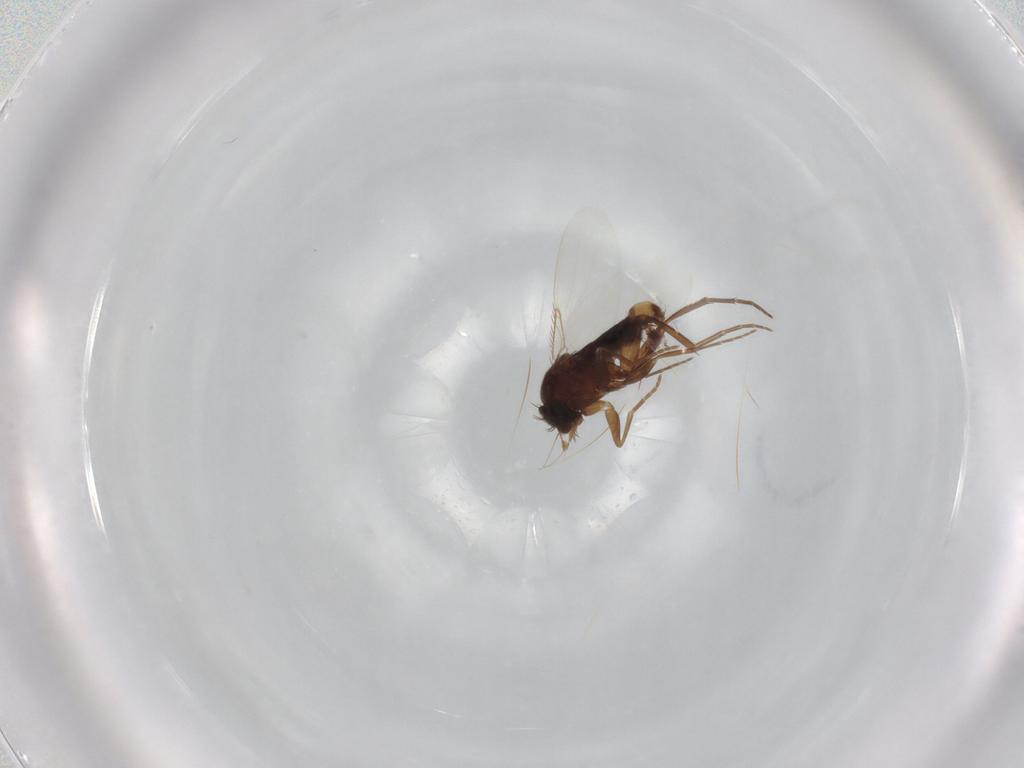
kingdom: Animalia
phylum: Arthropoda
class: Insecta
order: Diptera
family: Phoridae
